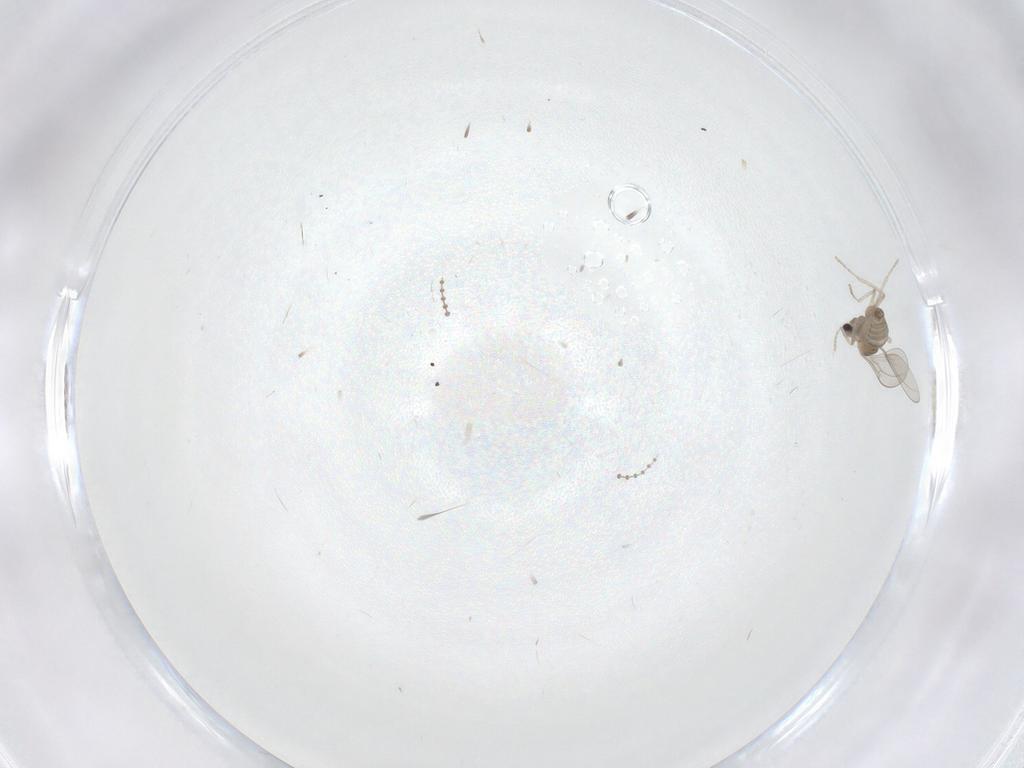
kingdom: Animalia
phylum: Arthropoda
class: Insecta
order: Diptera
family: Cecidomyiidae
